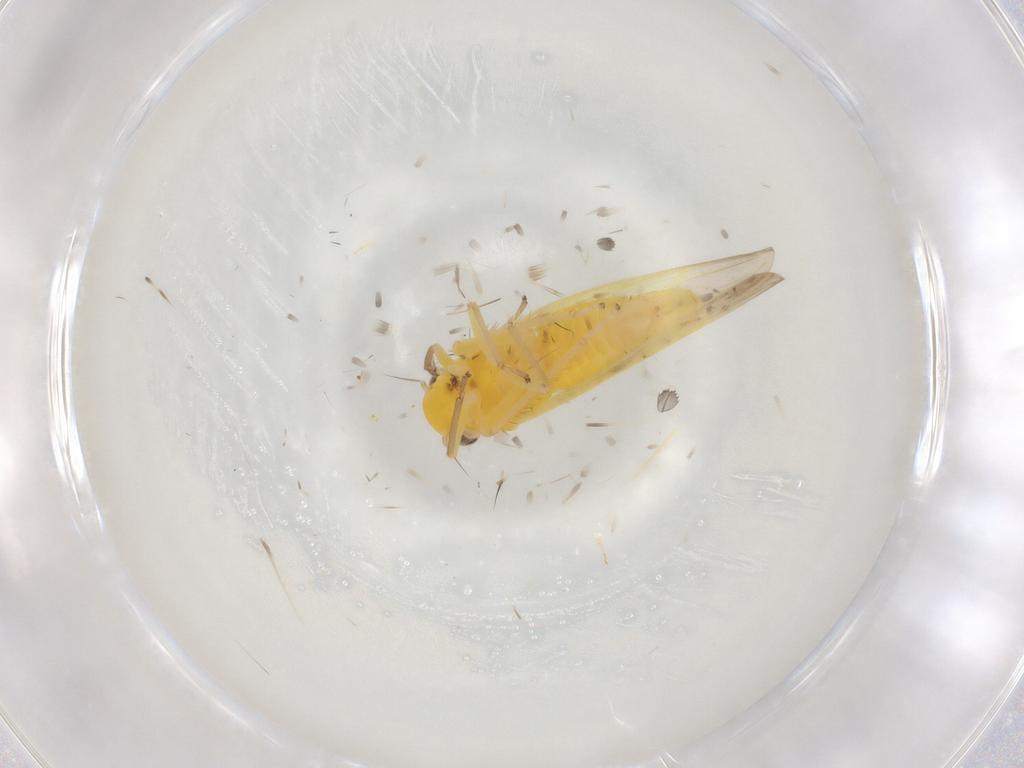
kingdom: Animalia
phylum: Arthropoda
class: Insecta
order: Hemiptera
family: Cicadellidae
